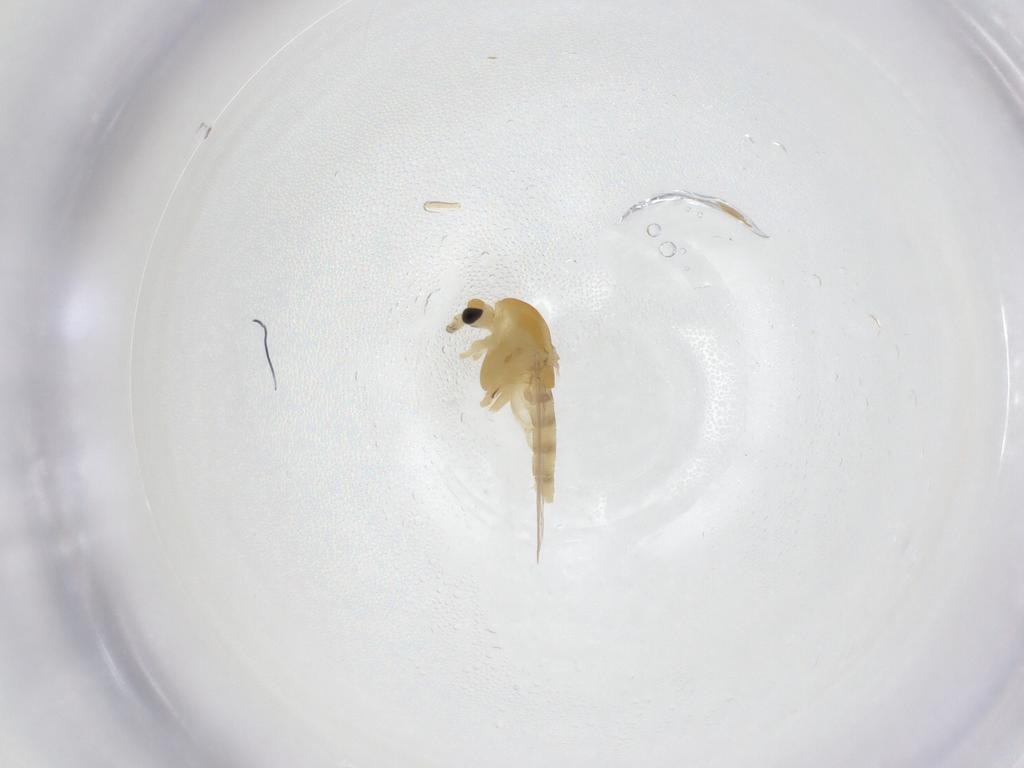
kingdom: Animalia
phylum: Arthropoda
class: Insecta
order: Diptera
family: Chironomidae
